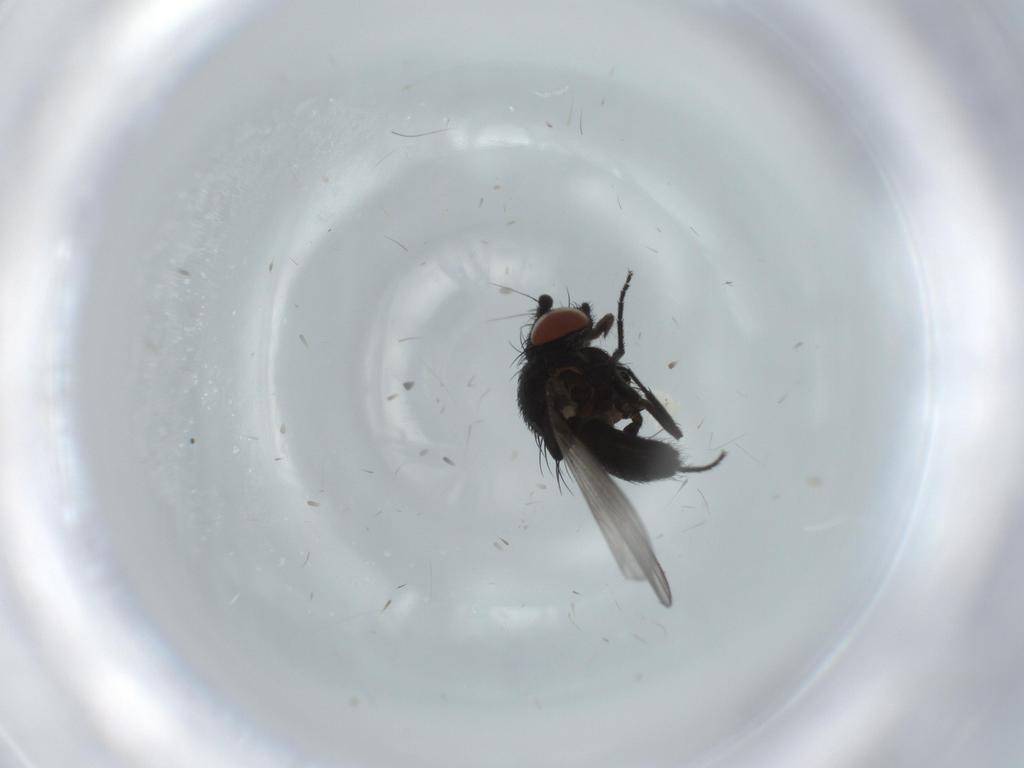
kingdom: Animalia
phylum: Arthropoda
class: Insecta
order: Diptera
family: Milichiidae
